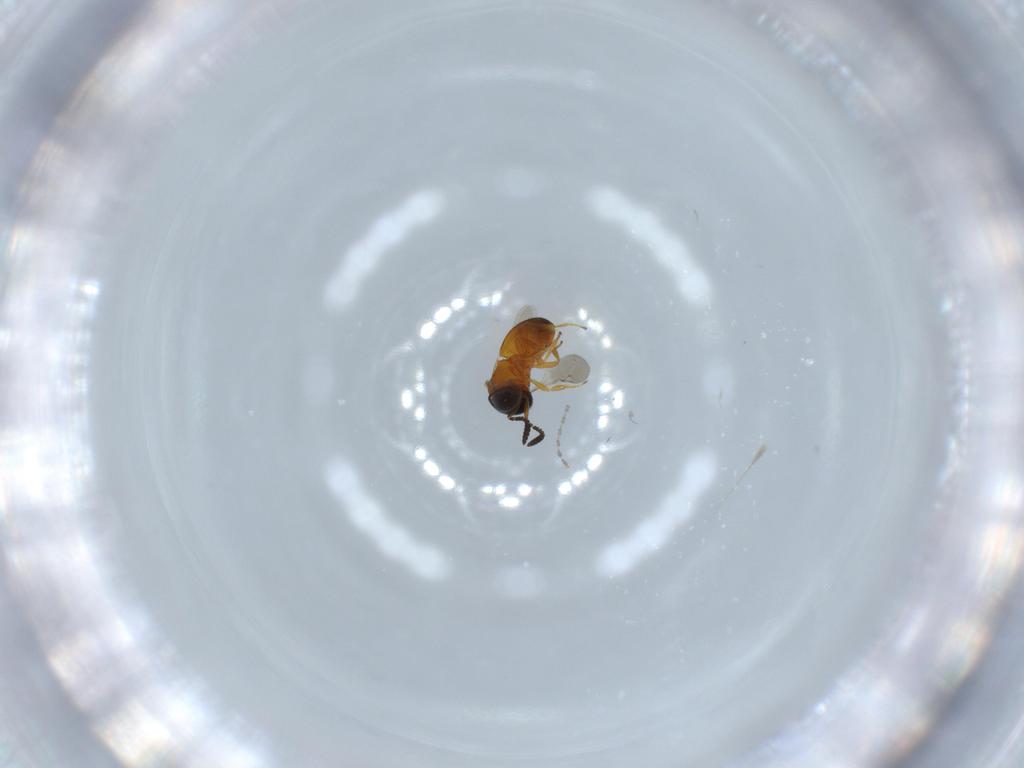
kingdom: Animalia
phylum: Arthropoda
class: Insecta
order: Hymenoptera
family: Scelionidae
